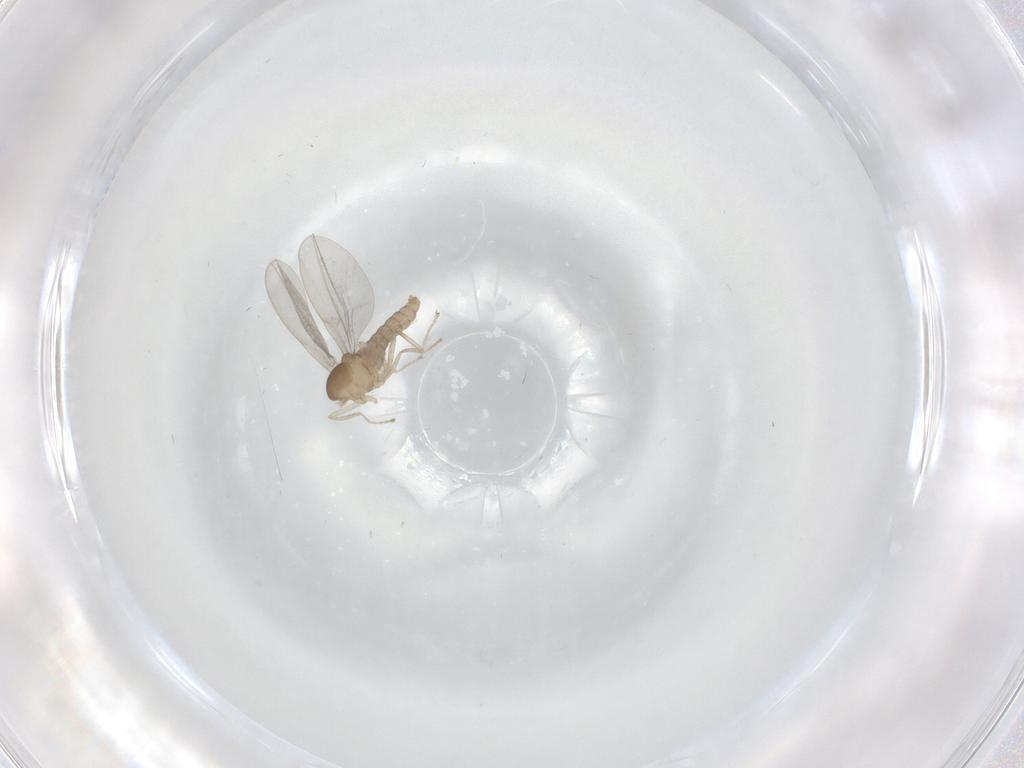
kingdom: Animalia
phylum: Arthropoda
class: Insecta
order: Diptera
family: Cecidomyiidae
